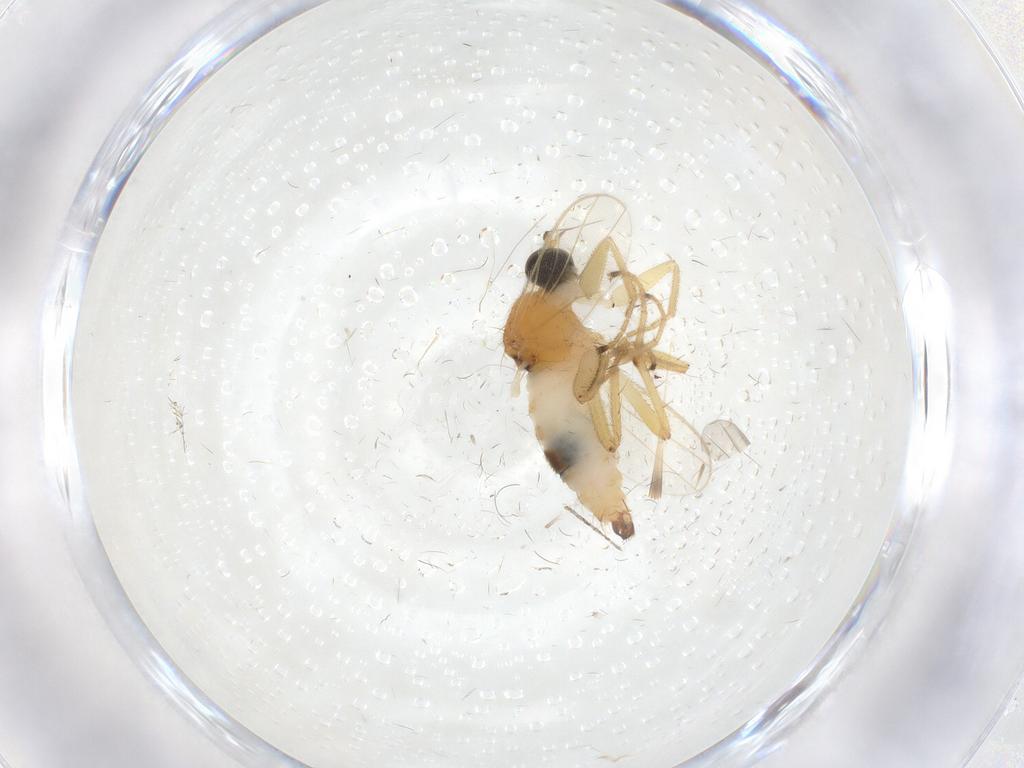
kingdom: Animalia
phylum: Arthropoda
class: Insecta
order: Diptera
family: Hybotidae
